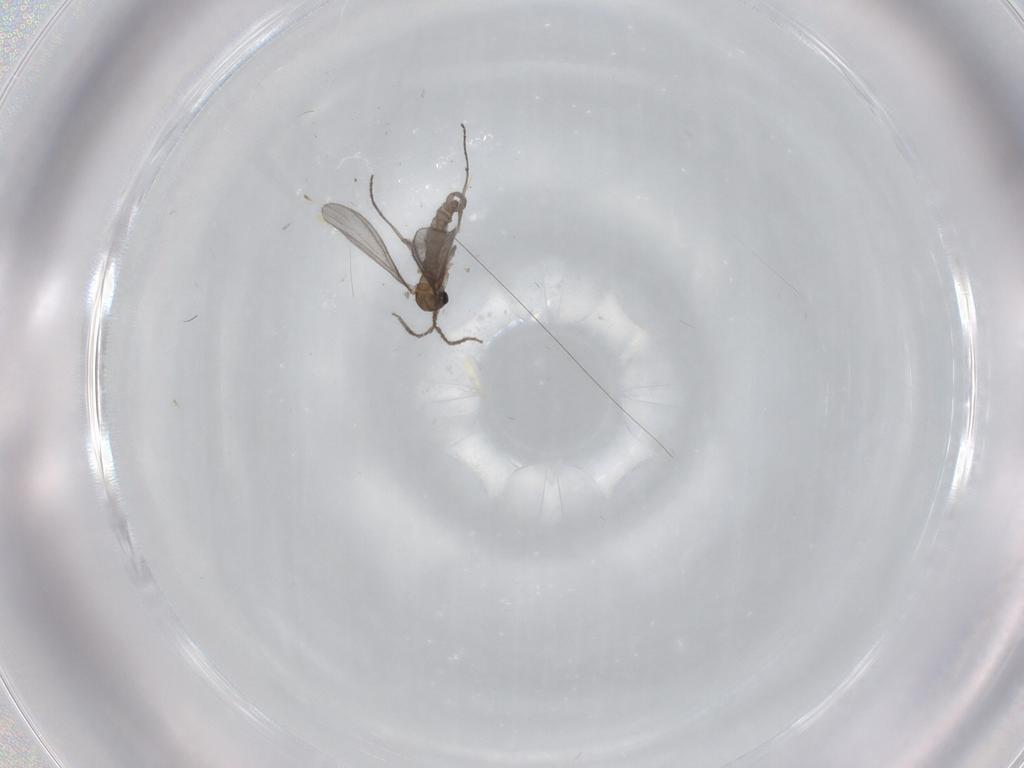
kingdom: Animalia
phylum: Arthropoda
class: Insecta
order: Diptera
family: Sciaridae
